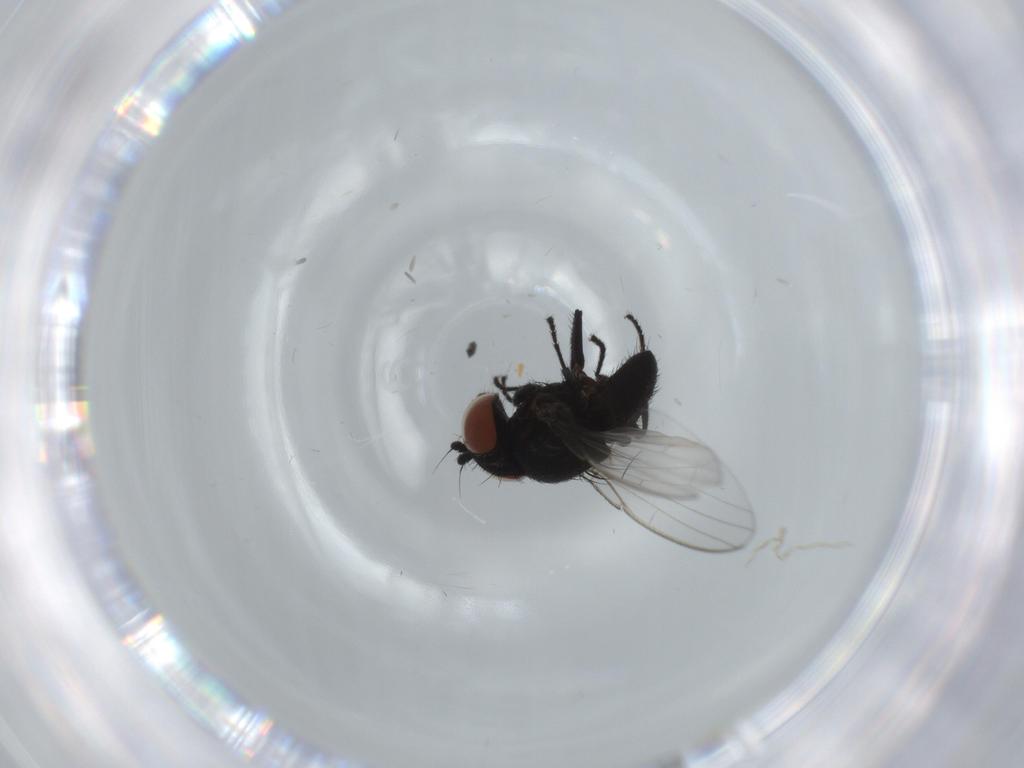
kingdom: Animalia
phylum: Arthropoda
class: Insecta
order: Diptera
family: Milichiidae
